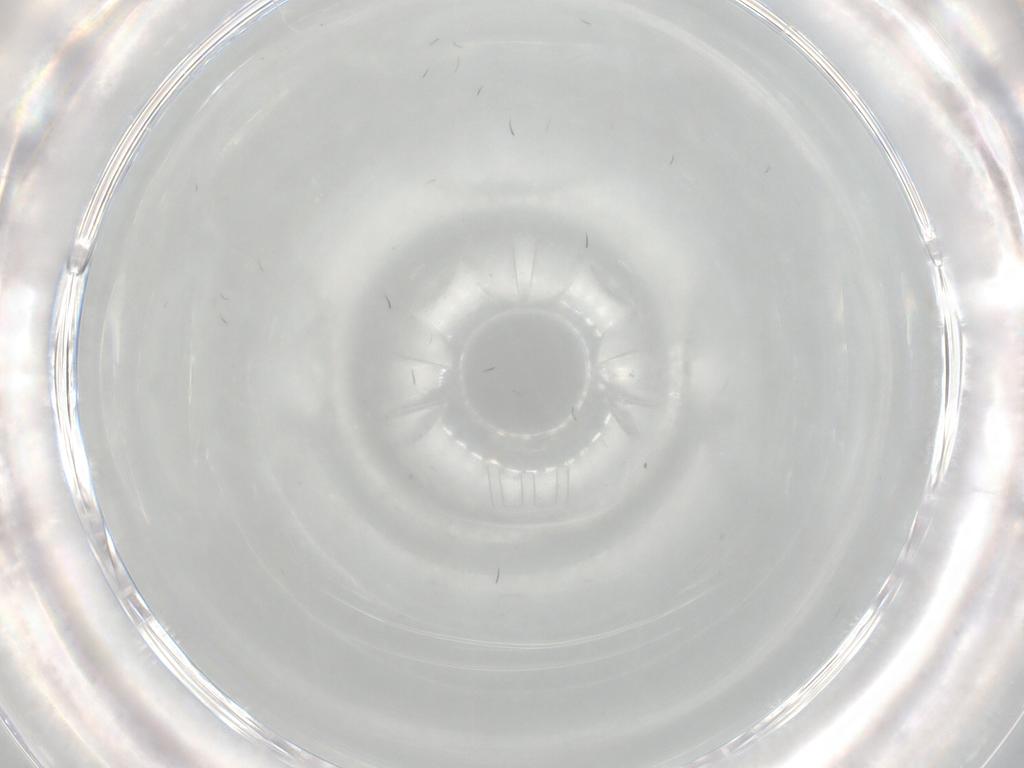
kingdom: Animalia
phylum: Arthropoda
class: Insecta
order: Diptera
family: Cecidomyiidae
